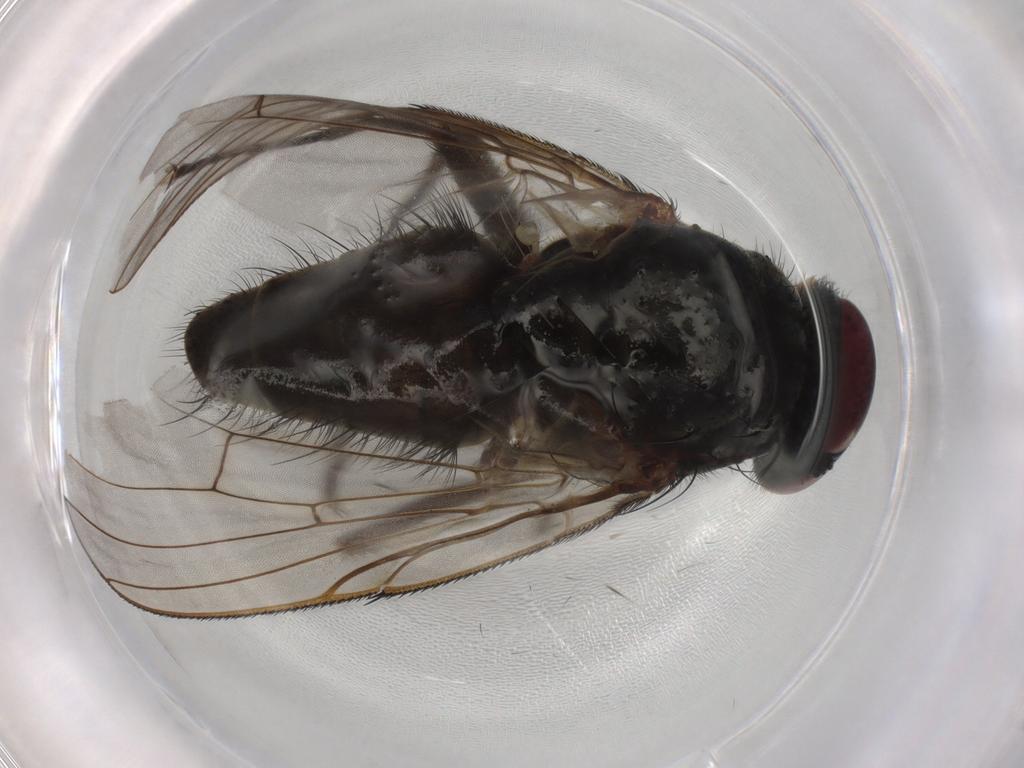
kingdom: Animalia
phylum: Arthropoda
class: Insecta
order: Diptera
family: Muscidae
